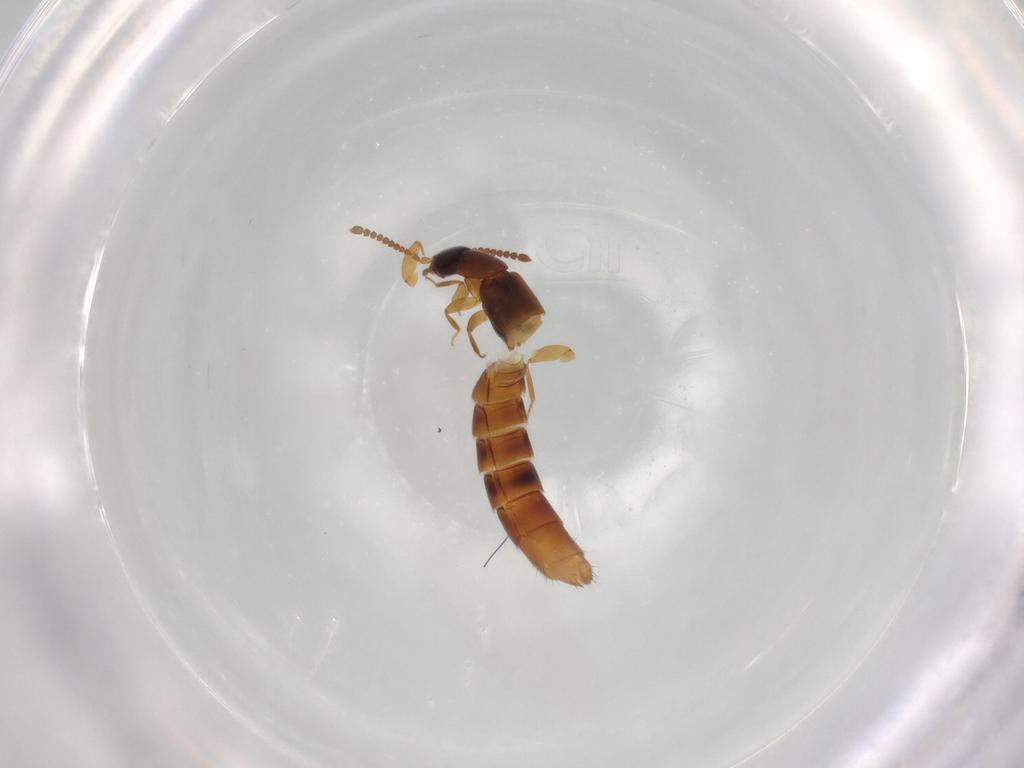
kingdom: Animalia
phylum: Arthropoda
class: Insecta
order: Coleoptera
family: Staphylinidae
